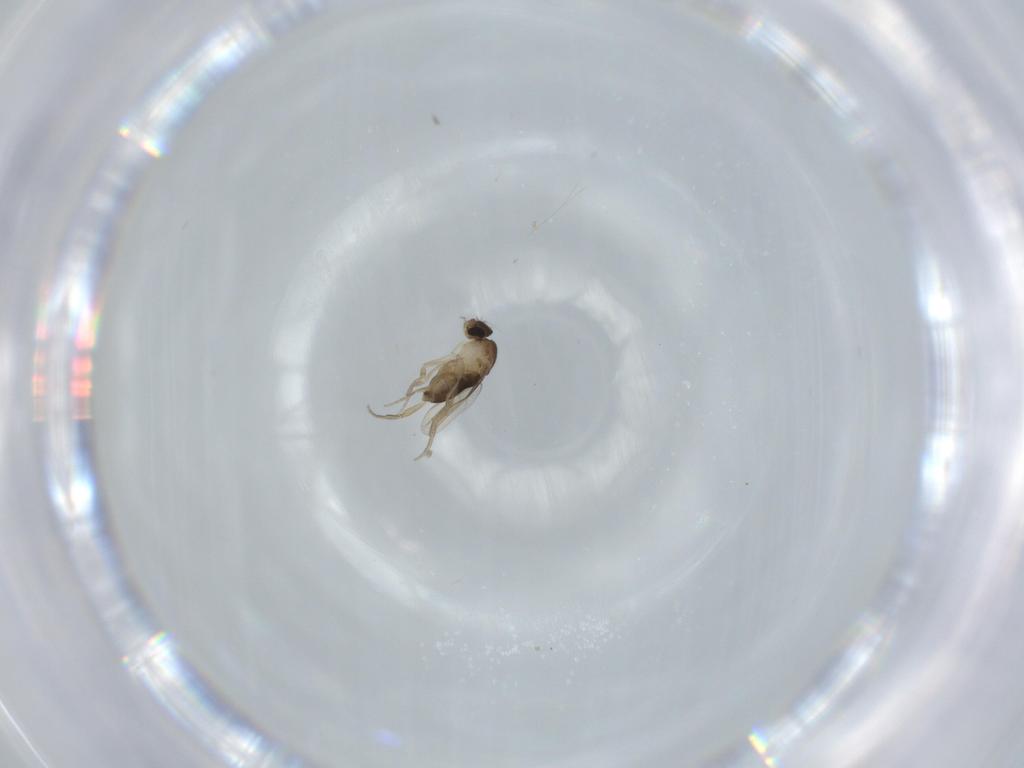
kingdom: Animalia
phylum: Arthropoda
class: Insecta
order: Diptera
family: Phoridae
